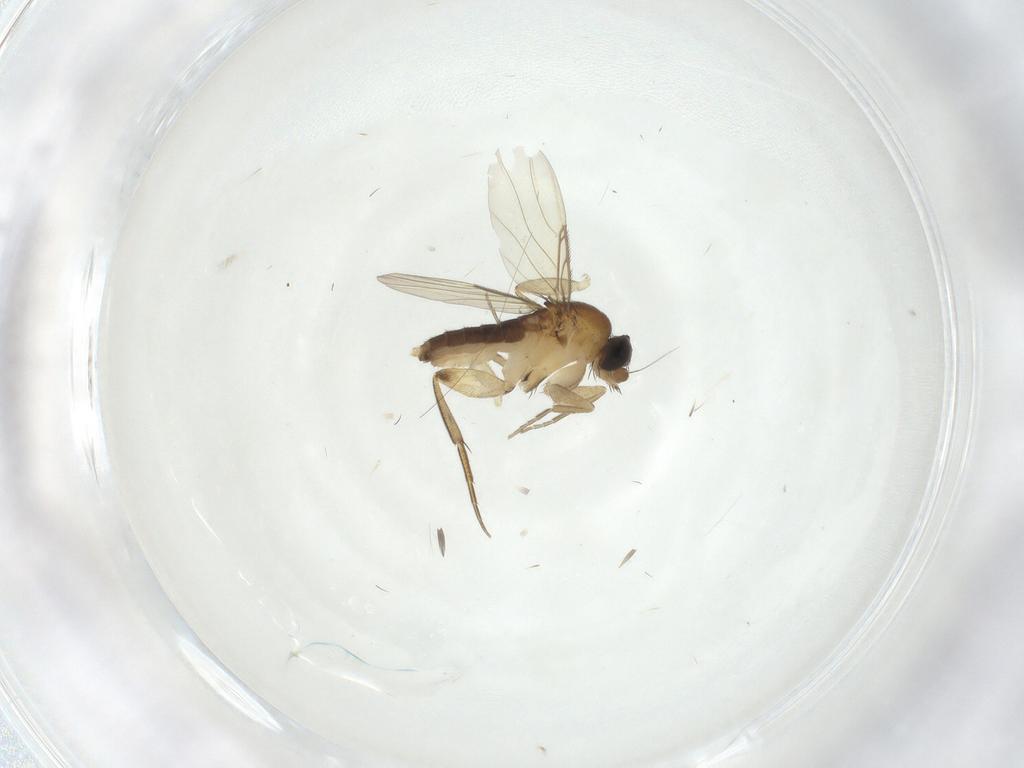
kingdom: Animalia
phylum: Arthropoda
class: Insecta
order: Diptera
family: Phoridae
